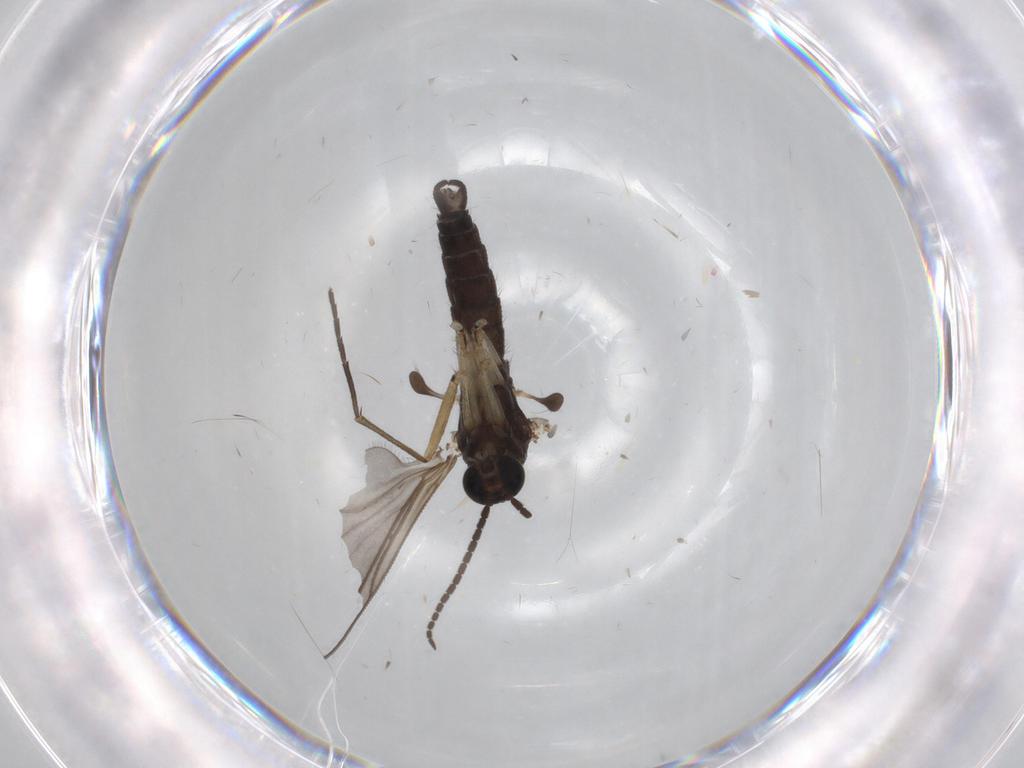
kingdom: Animalia
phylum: Arthropoda
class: Insecta
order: Diptera
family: Sciaridae
